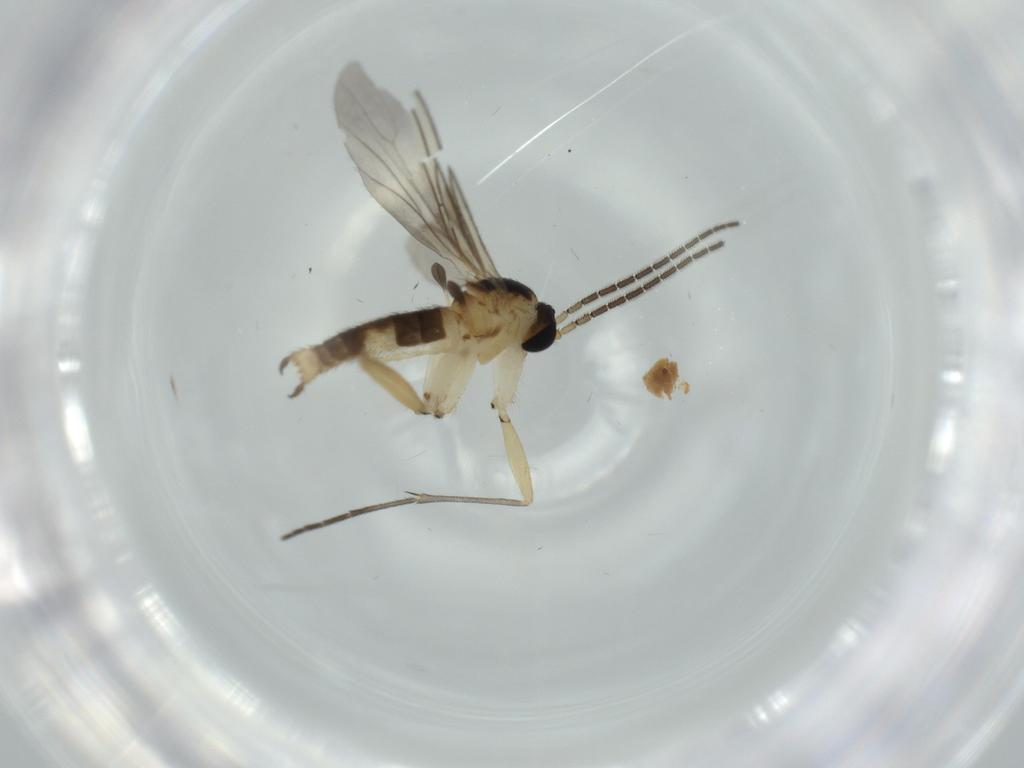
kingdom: Animalia
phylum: Arthropoda
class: Insecta
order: Diptera
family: Sciaridae
